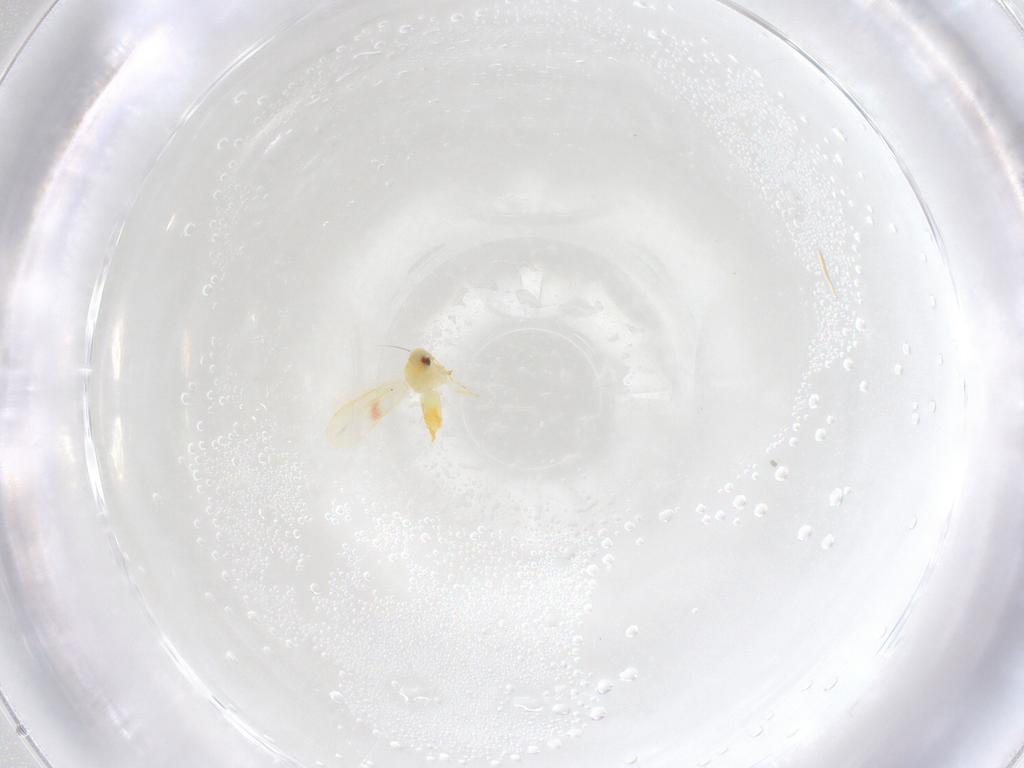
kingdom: Animalia
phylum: Arthropoda
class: Insecta
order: Hemiptera
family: Aleyrodidae
